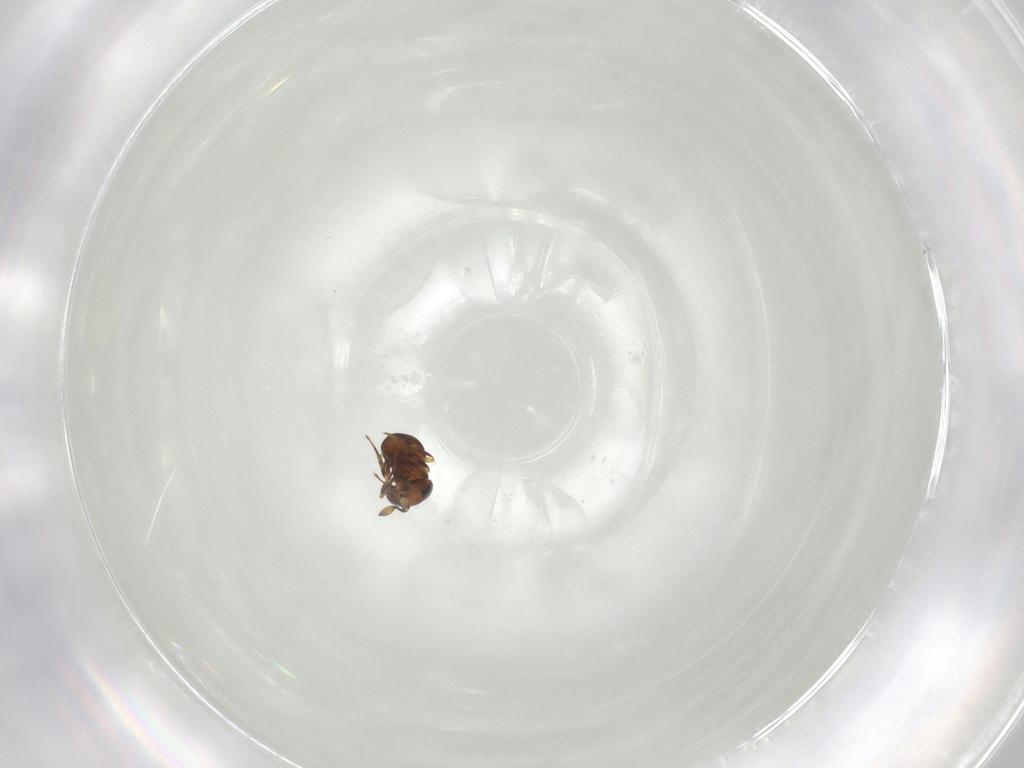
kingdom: Animalia
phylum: Arthropoda
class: Insecta
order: Hymenoptera
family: Scelionidae
